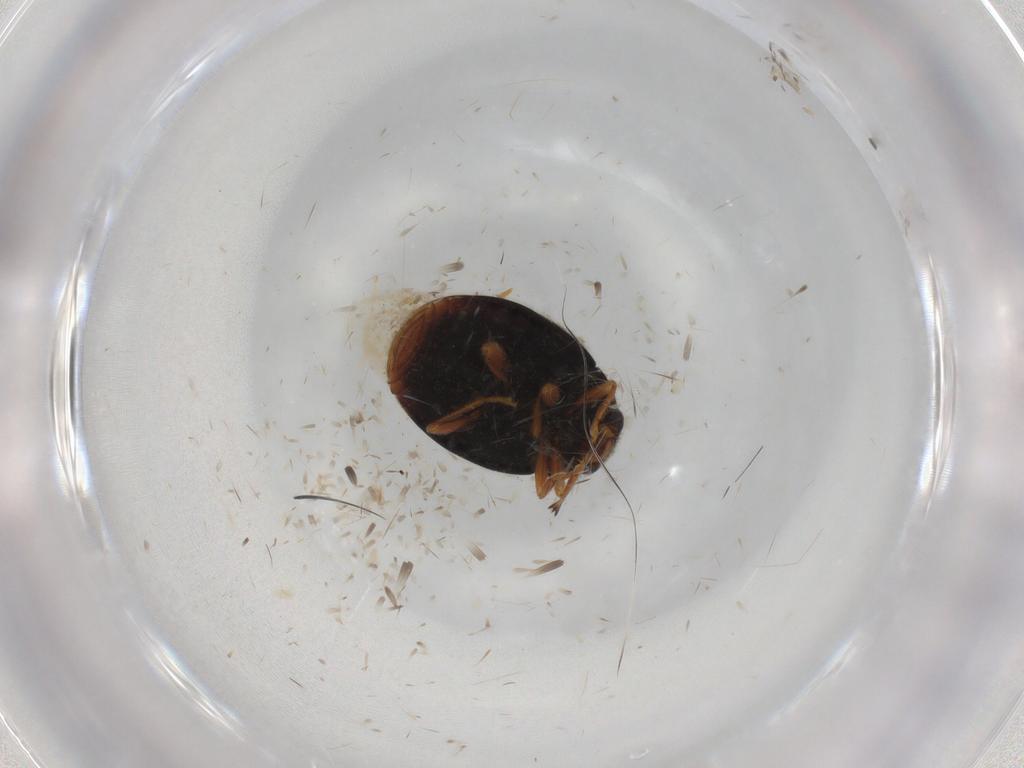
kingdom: Animalia
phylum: Arthropoda
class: Insecta
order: Coleoptera
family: Coccinellidae
